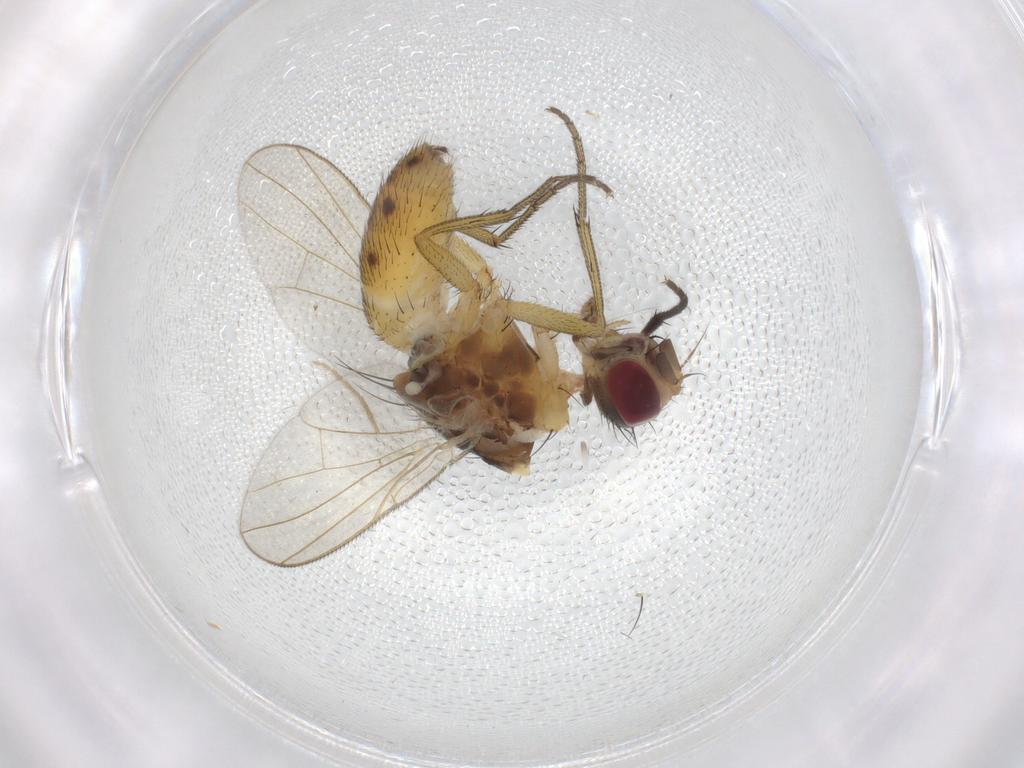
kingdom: Animalia
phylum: Arthropoda
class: Insecta
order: Diptera
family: Muscidae
